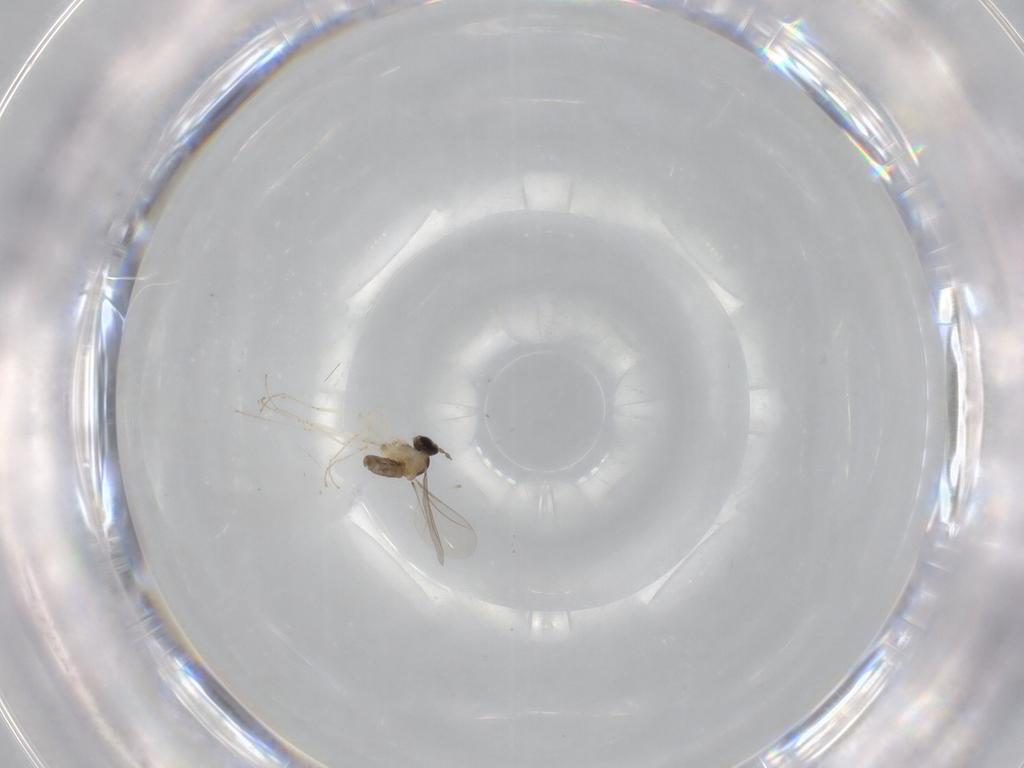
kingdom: Animalia
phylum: Arthropoda
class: Insecta
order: Diptera
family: Cecidomyiidae
